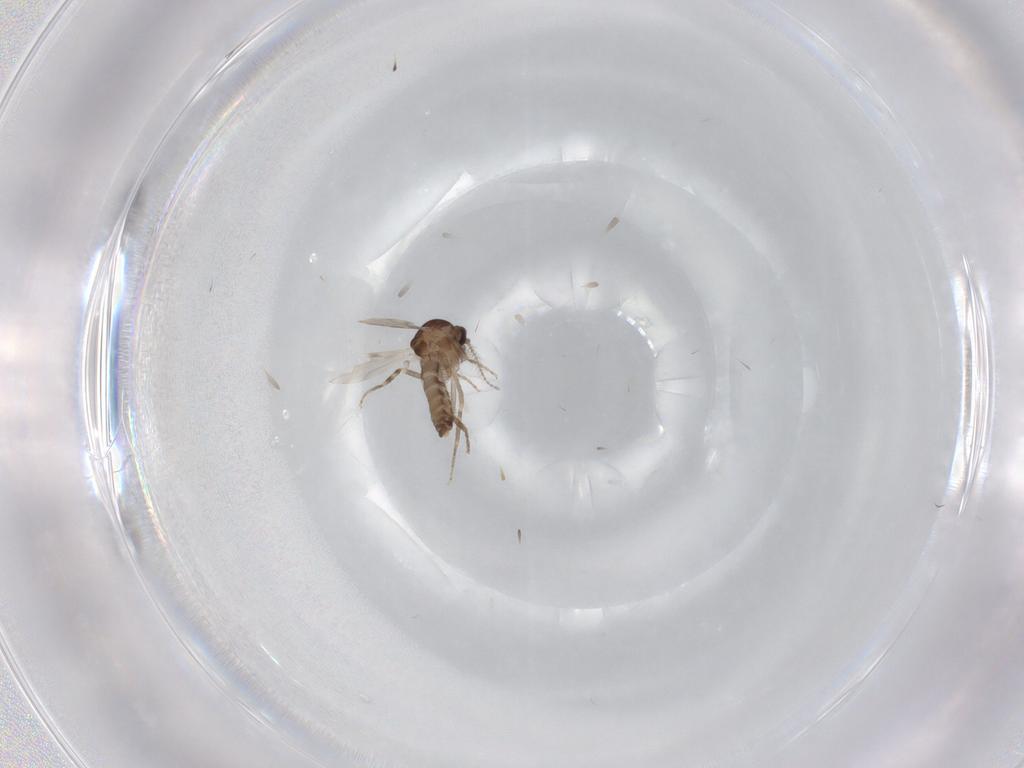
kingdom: Animalia
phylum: Arthropoda
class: Insecta
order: Diptera
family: Ceratopogonidae
